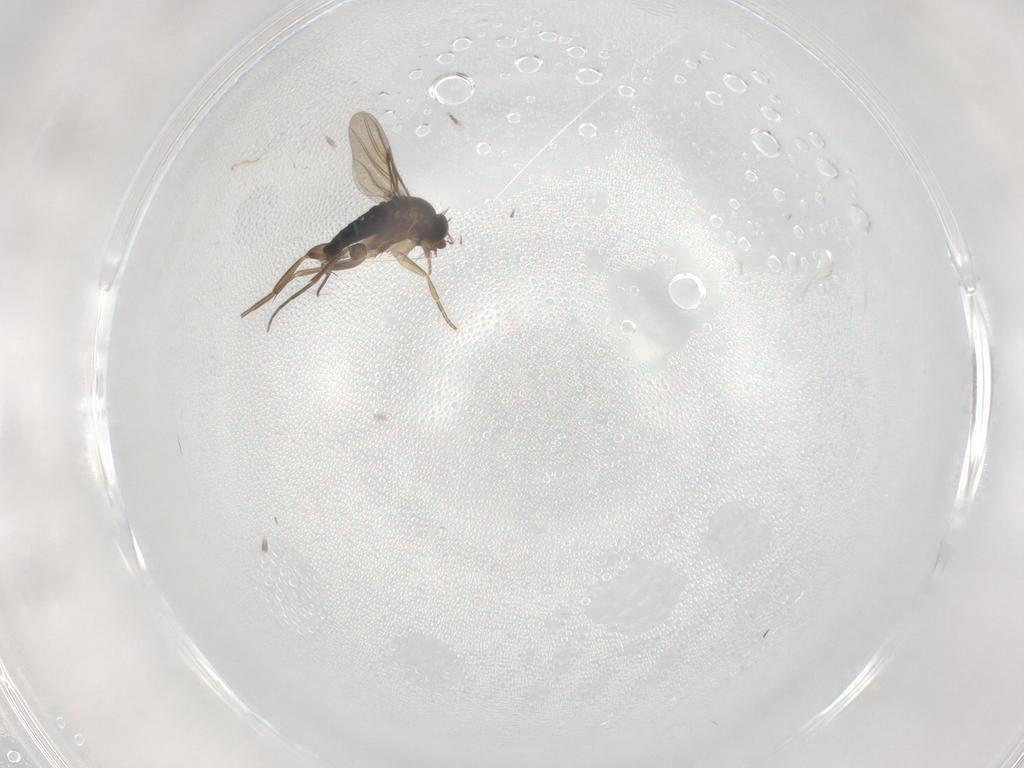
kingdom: Animalia
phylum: Arthropoda
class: Insecta
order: Diptera
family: Phoridae
